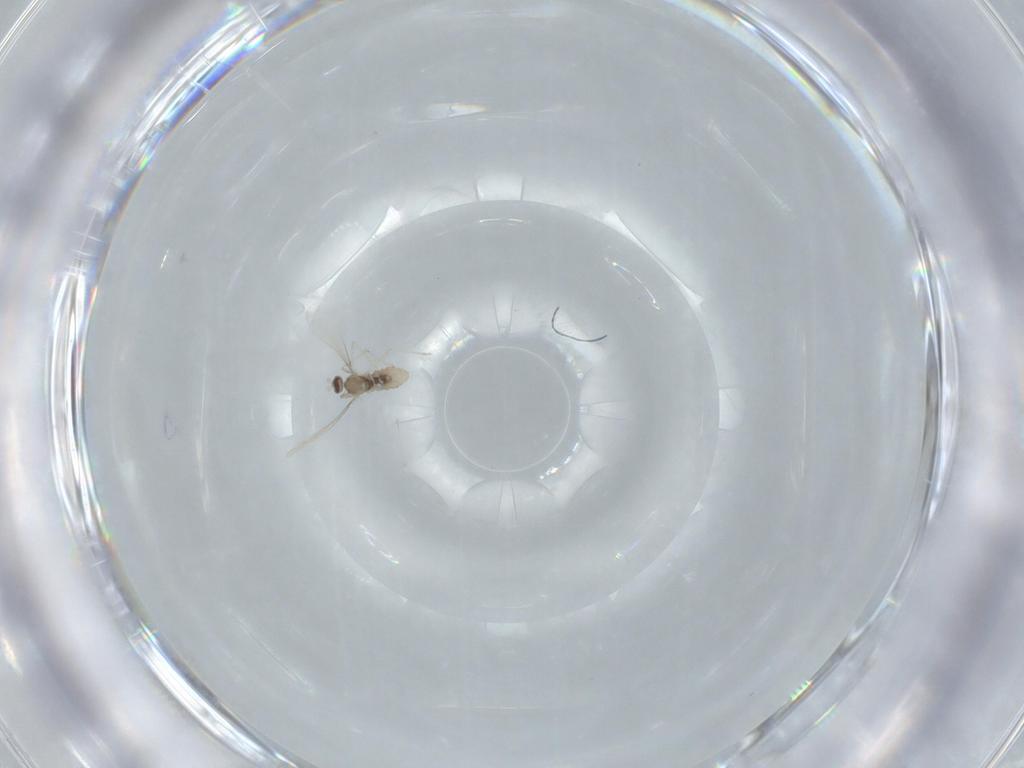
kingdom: Animalia
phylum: Arthropoda
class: Insecta
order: Diptera
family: Cecidomyiidae
